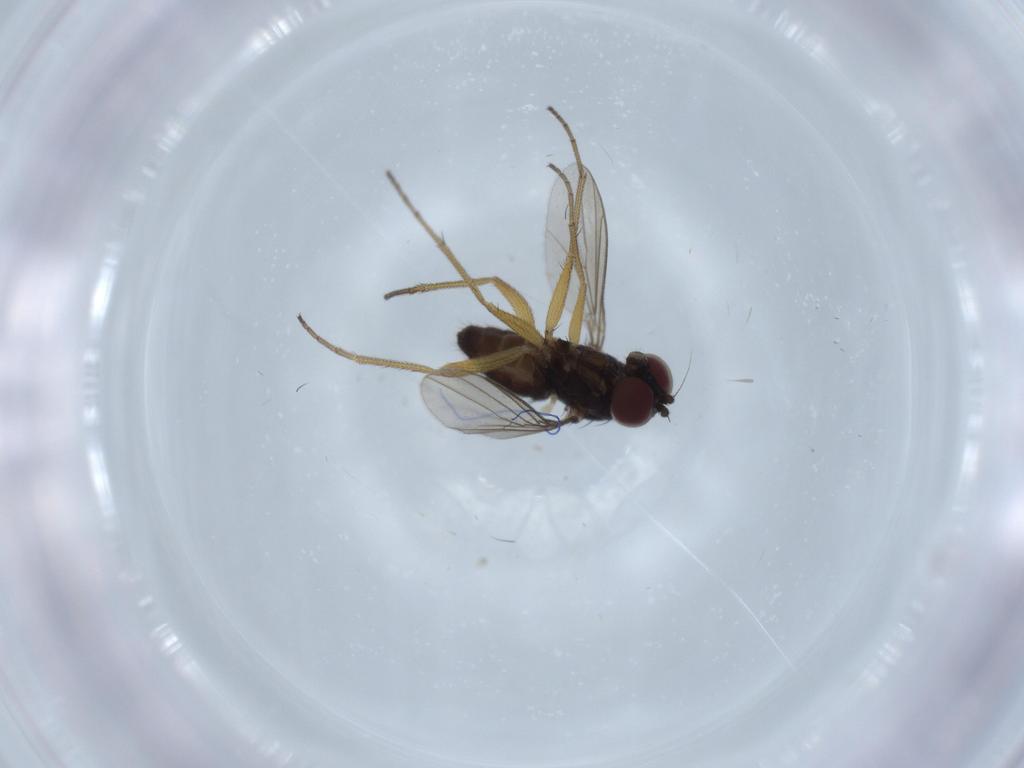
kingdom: Animalia
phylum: Arthropoda
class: Insecta
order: Diptera
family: Dolichopodidae
